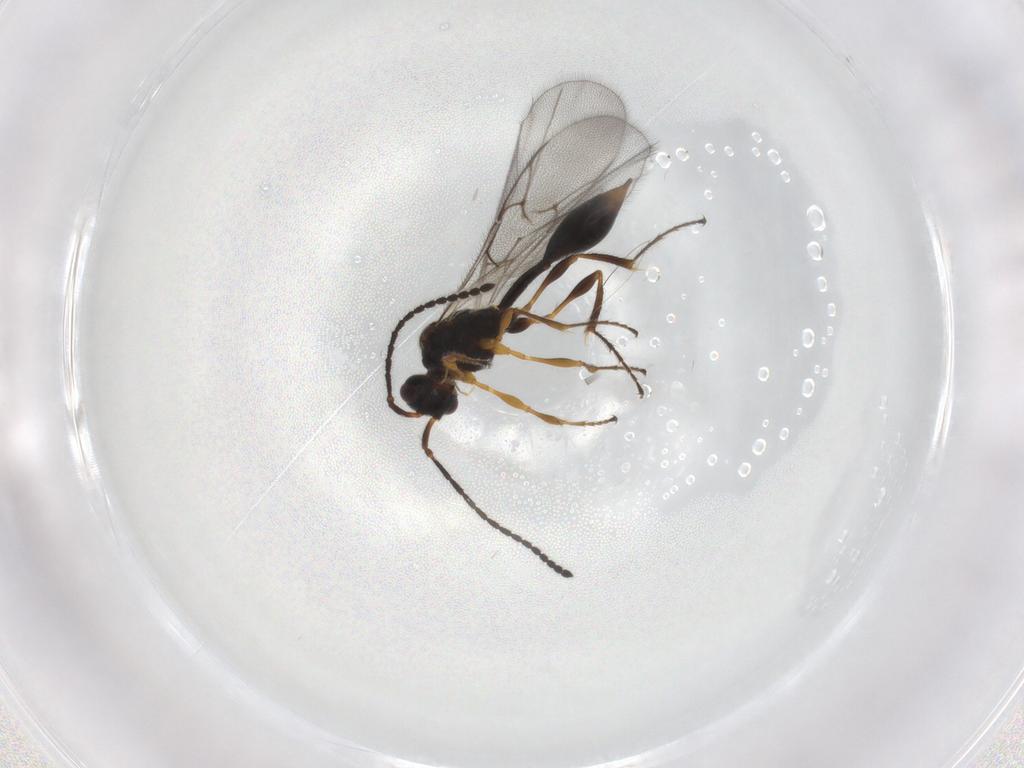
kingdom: Animalia
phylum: Arthropoda
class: Insecta
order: Hymenoptera
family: Diapriidae
